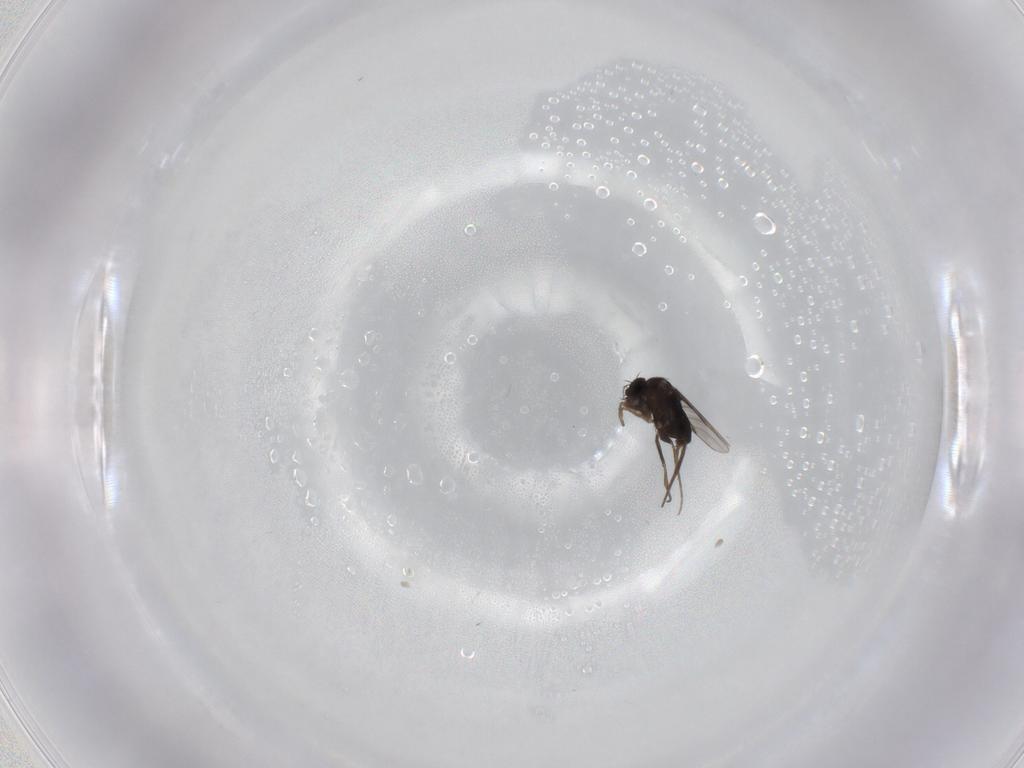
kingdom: Animalia
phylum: Arthropoda
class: Insecta
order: Diptera
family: Phoridae
